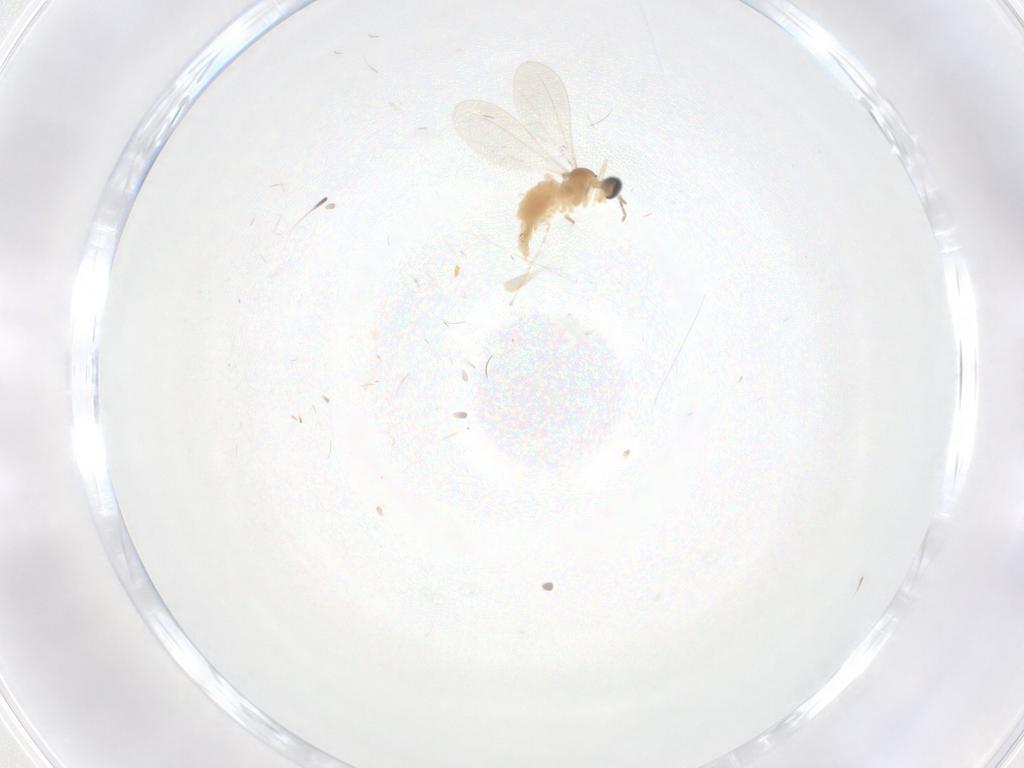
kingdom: Animalia
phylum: Arthropoda
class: Insecta
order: Diptera
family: Cecidomyiidae
